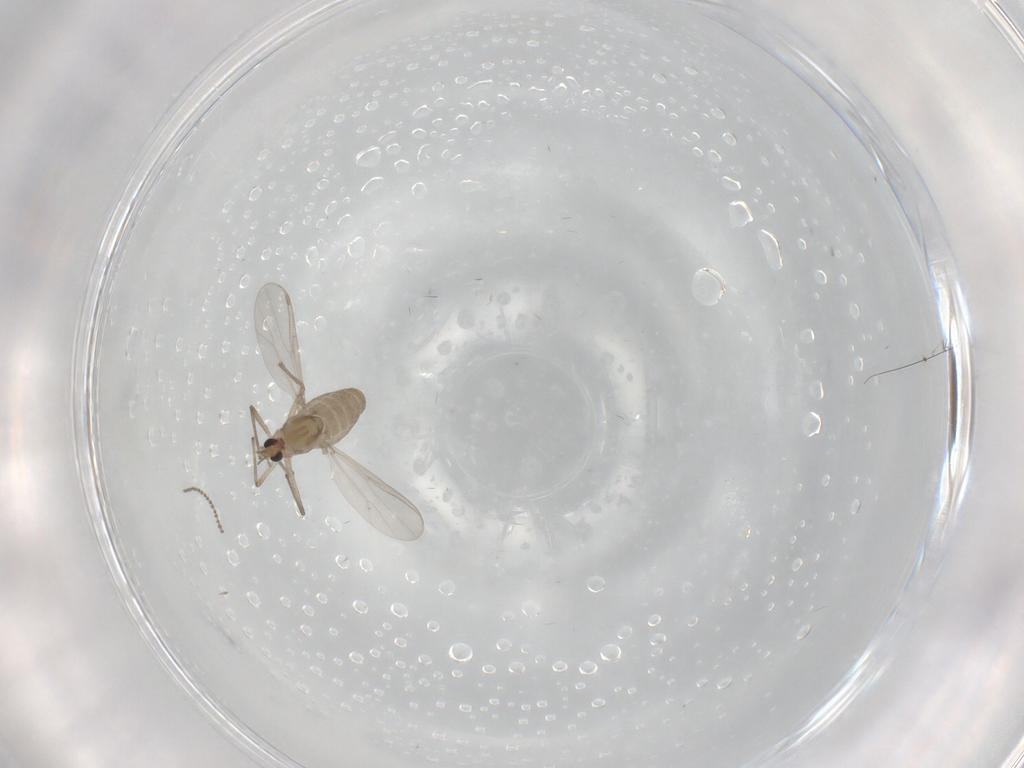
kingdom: Animalia
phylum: Arthropoda
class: Insecta
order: Diptera
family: Chironomidae
